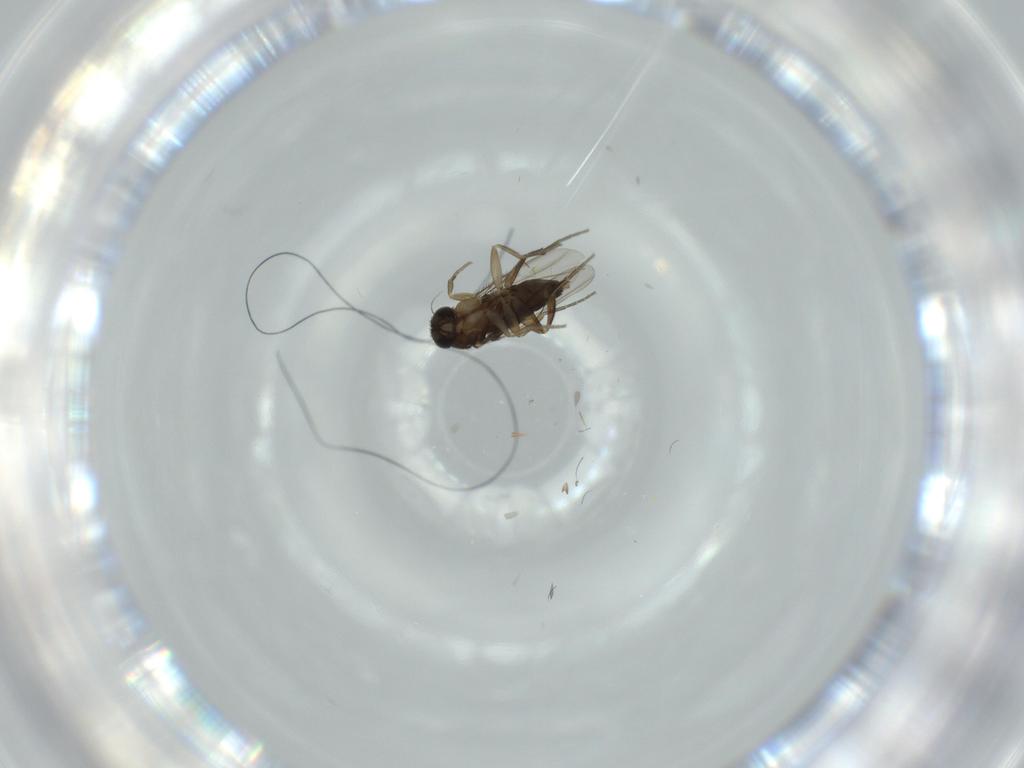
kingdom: Animalia
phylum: Arthropoda
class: Insecta
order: Diptera
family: Phoridae
